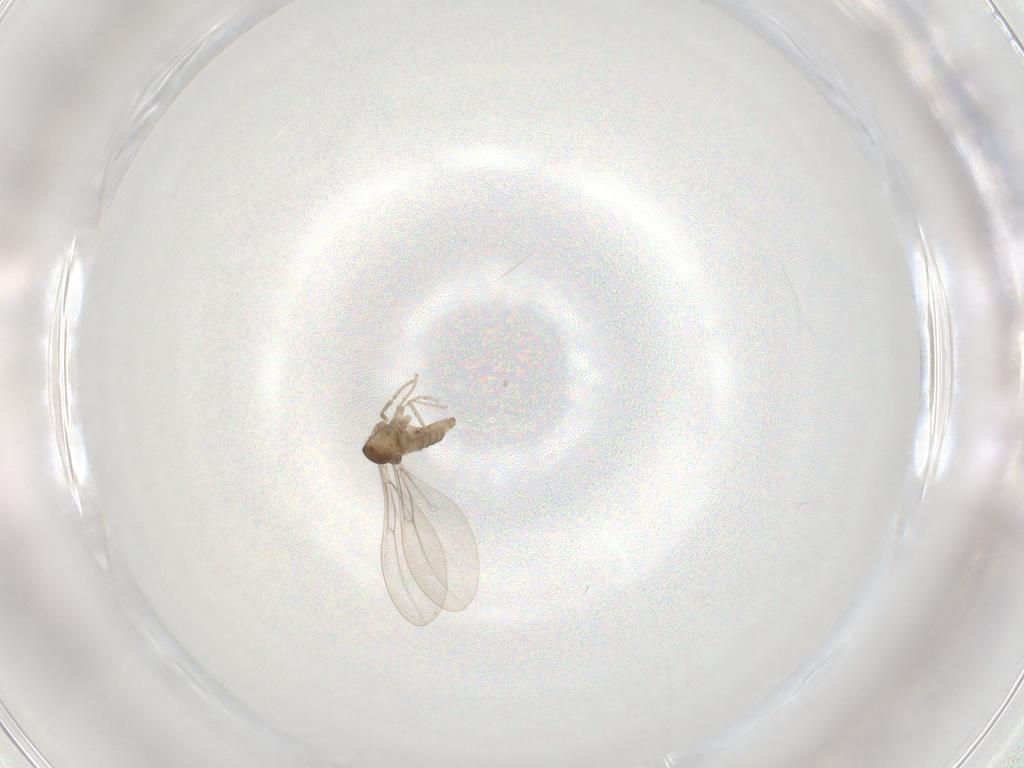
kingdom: Animalia
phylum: Arthropoda
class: Insecta
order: Diptera
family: Cecidomyiidae
